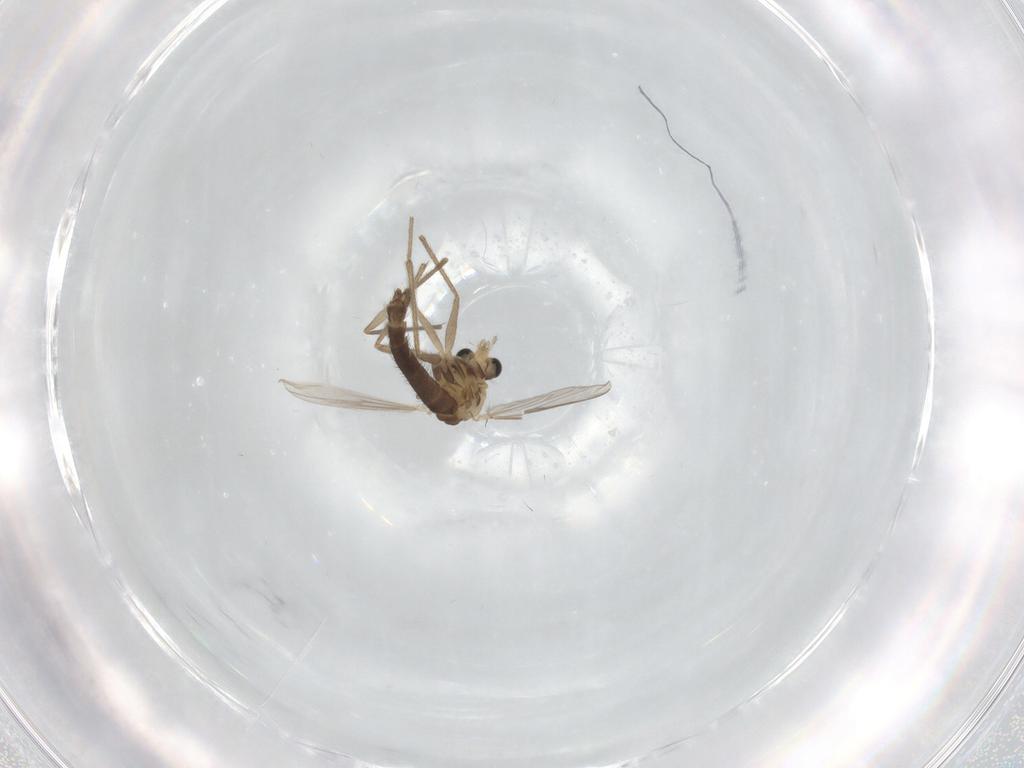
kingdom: Animalia
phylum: Arthropoda
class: Insecta
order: Diptera
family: Chironomidae
